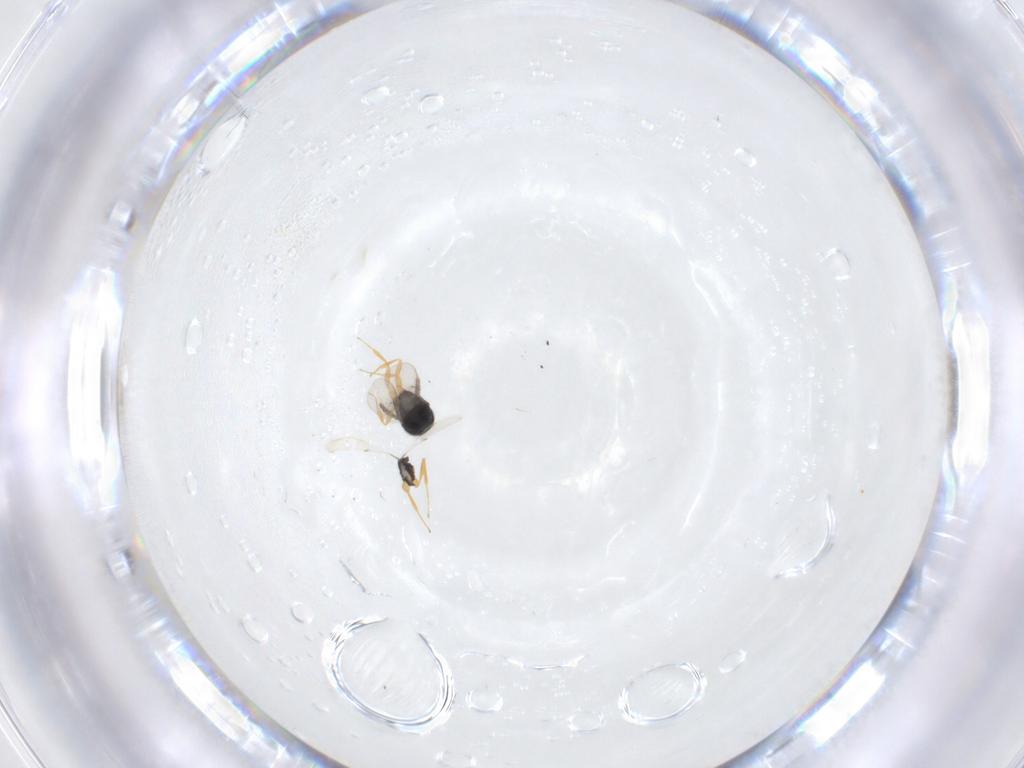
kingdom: Animalia
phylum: Arthropoda
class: Insecta
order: Hymenoptera
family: Scelionidae
